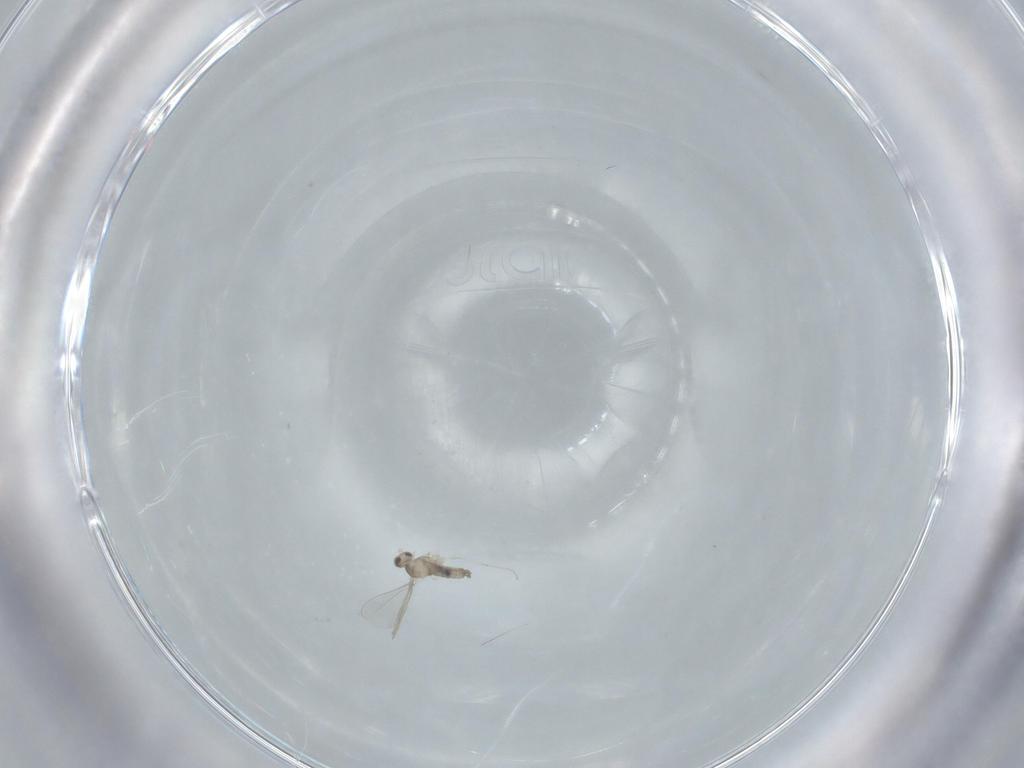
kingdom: Animalia
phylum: Arthropoda
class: Insecta
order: Diptera
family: Cecidomyiidae
